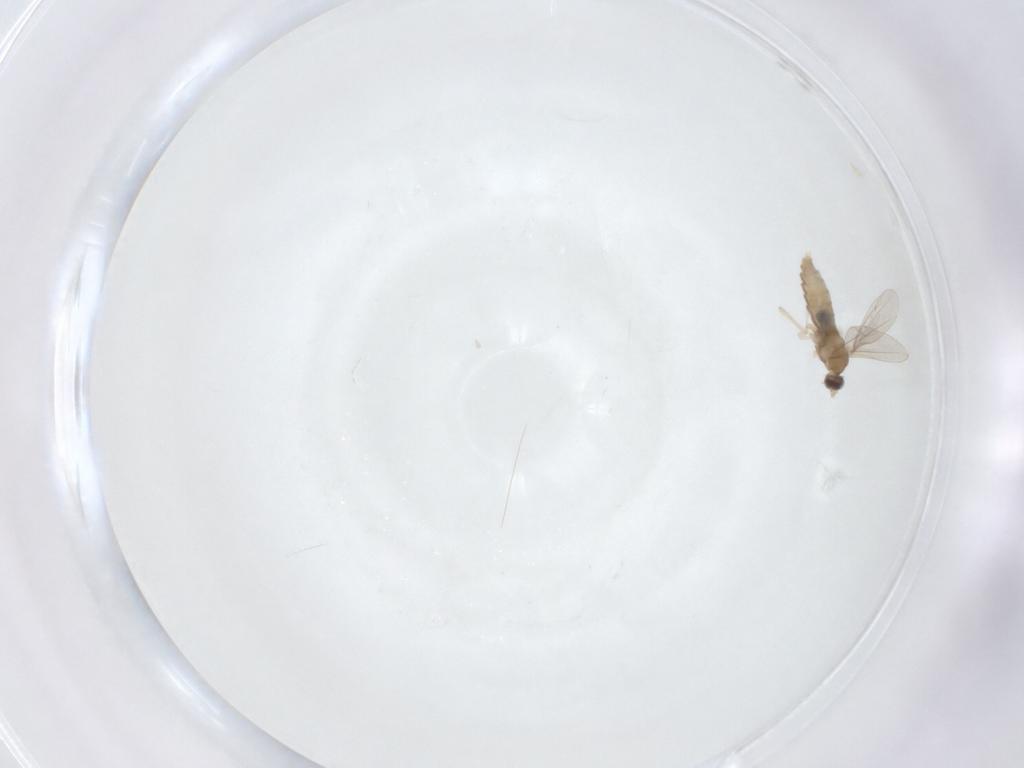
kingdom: Animalia
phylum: Arthropoda
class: Insecta
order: Diptera
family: Cecidomyiidae
